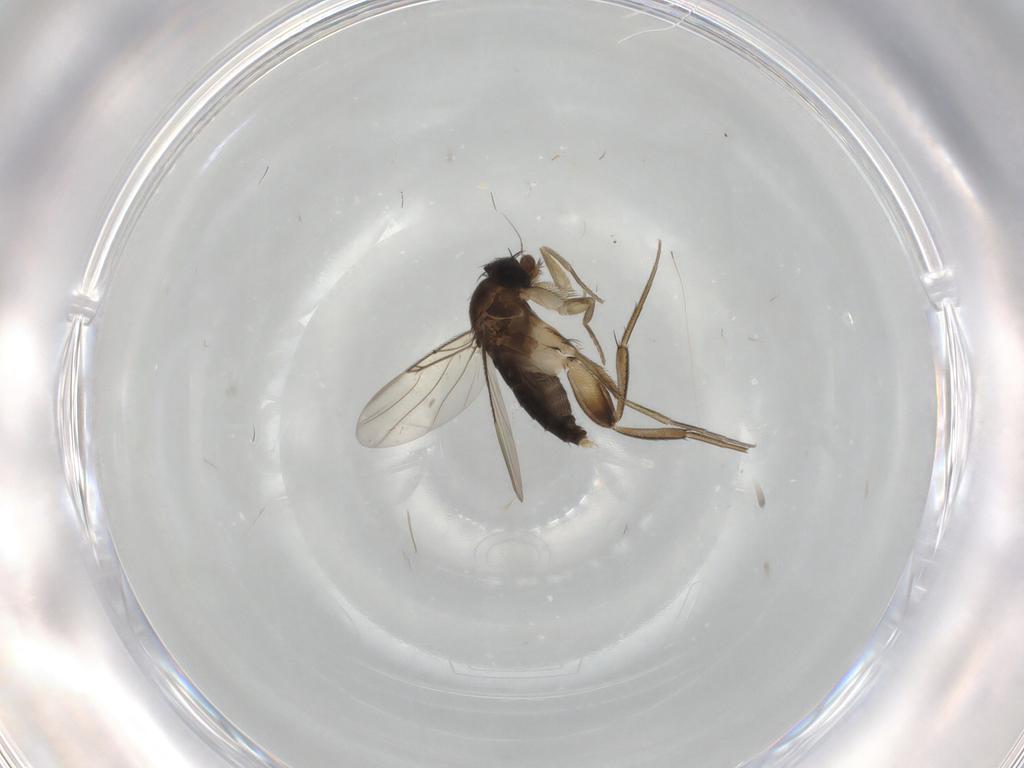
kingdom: Animalia
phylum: Arthropoda
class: Insecta
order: Diptera
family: Phoridae
